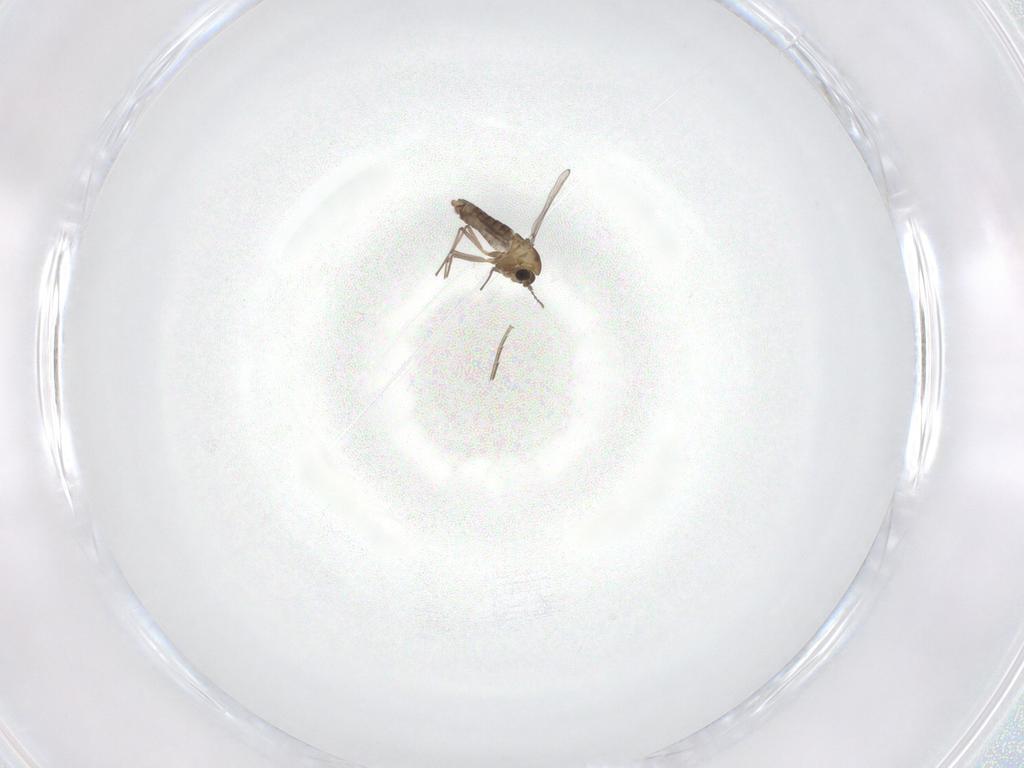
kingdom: Animalia
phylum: Arthropoda
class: Insecta
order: Diptera
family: Chironomidae
